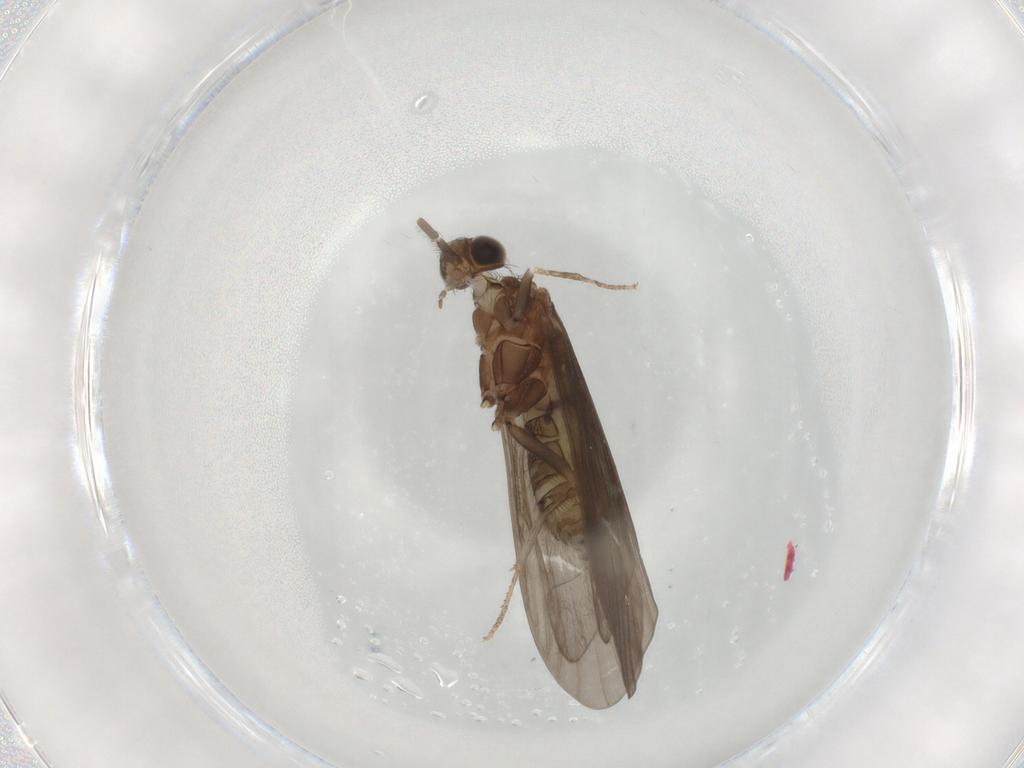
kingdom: Animalia
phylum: Arthropoda
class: Insecta
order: Trichoptera
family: Helicopsychidae
